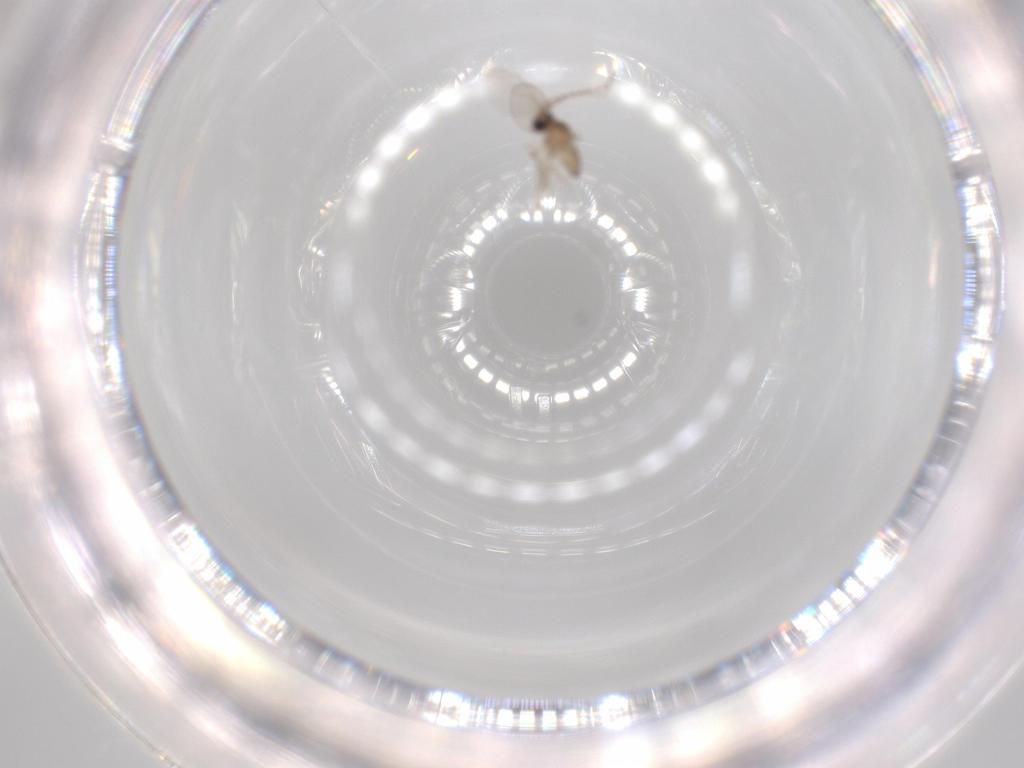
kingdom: Animalia
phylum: Arthropoda
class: Insecta
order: Diptera
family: Cecidomyiidae
